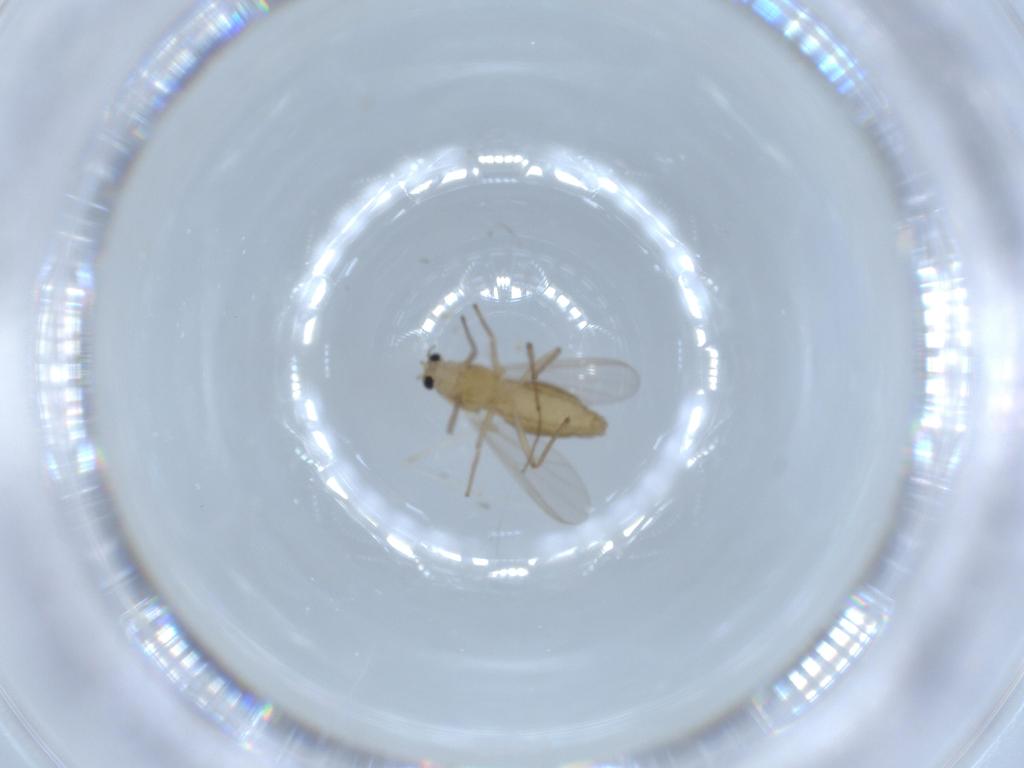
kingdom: Animalia
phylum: Arthropoda
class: Insecta
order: Diptera
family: Chironomidae
